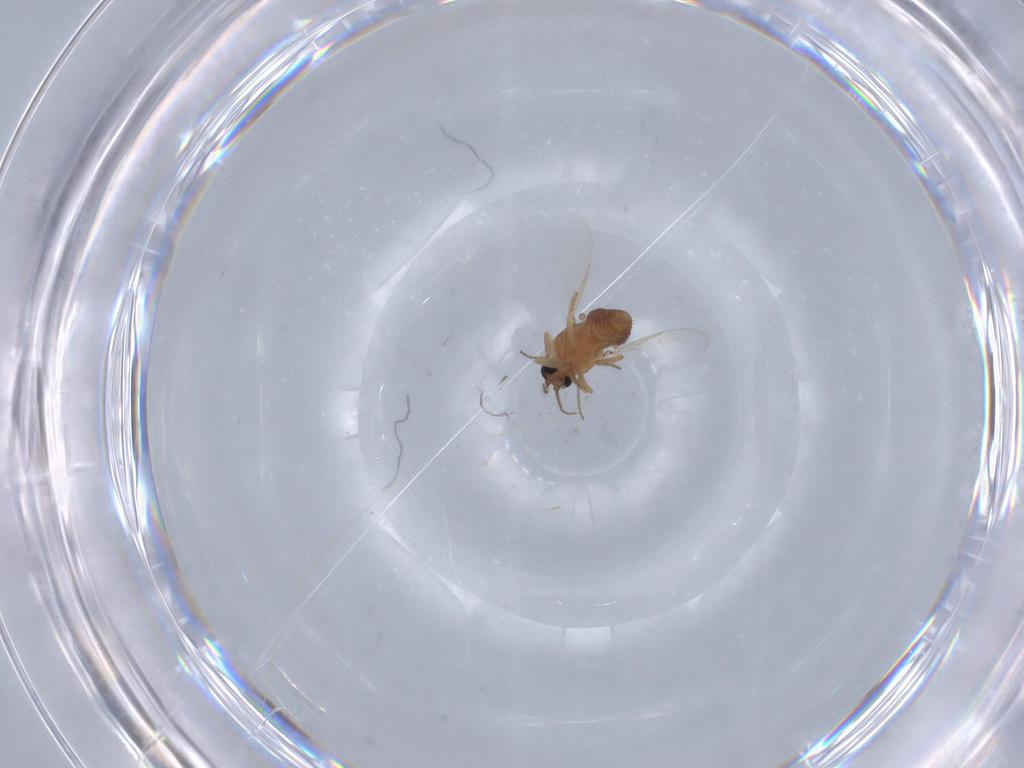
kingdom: Animalia
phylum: Arthropoda
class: Insecta
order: Diptera
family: Ceratopogonidae
